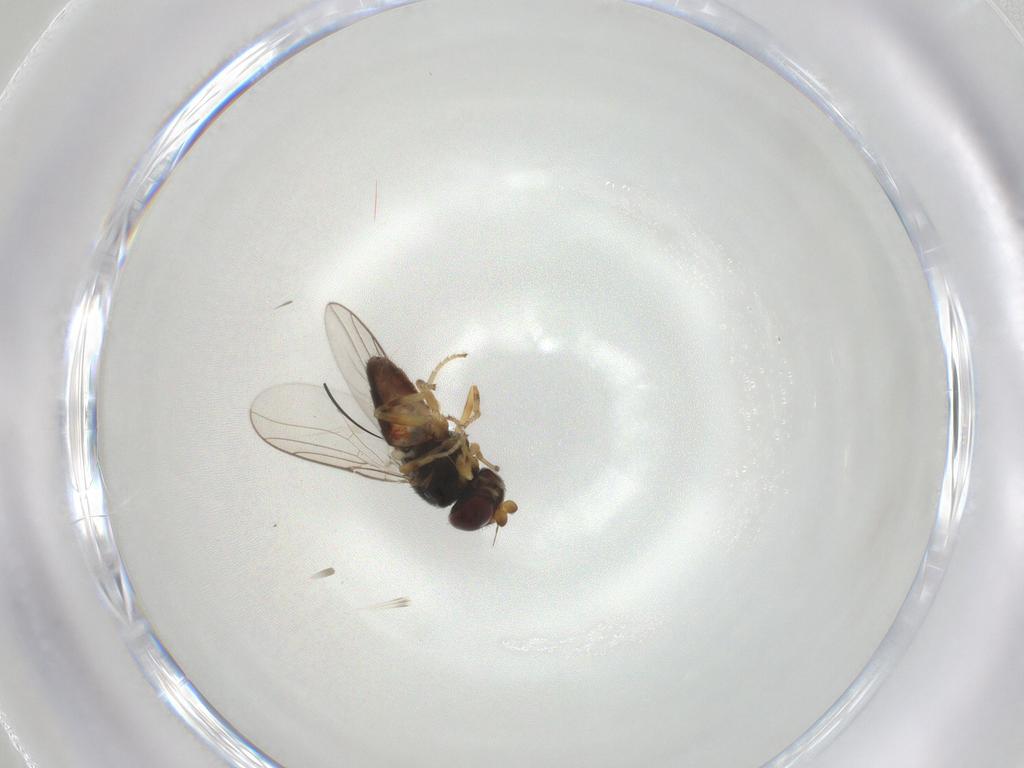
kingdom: Animalia
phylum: Arthropoda
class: Insecta
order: Diptera
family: Chloropidae
